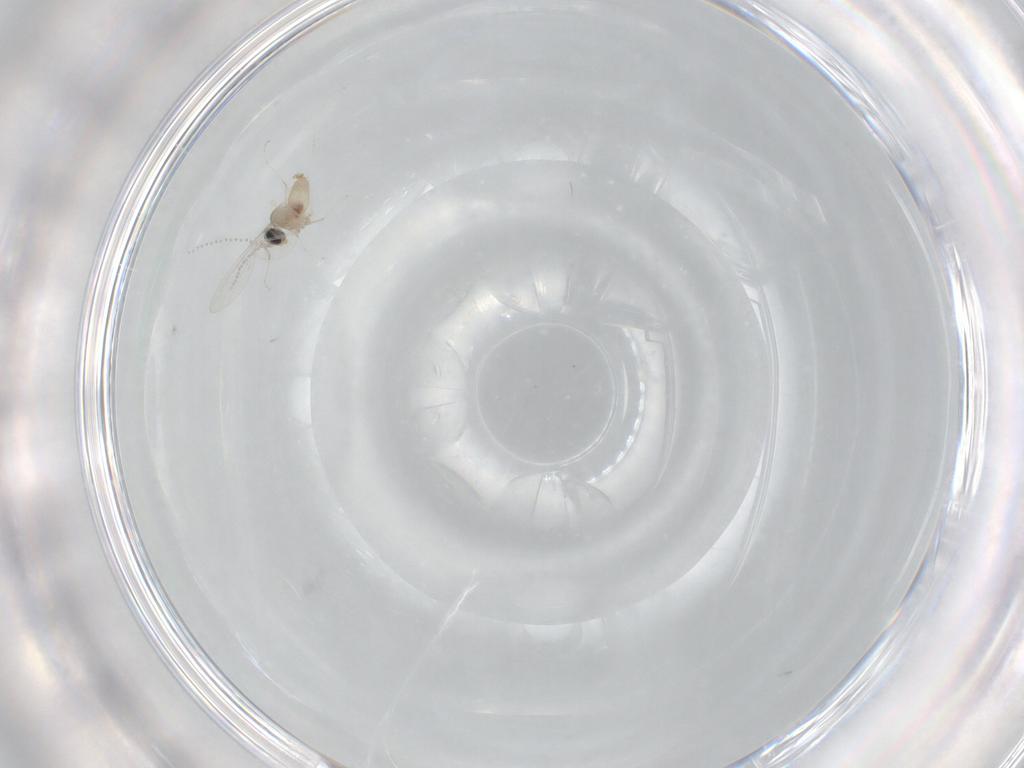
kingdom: Animalia
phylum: Arthropoda
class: Insecta
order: Diptera
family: Cecidomyiidae
